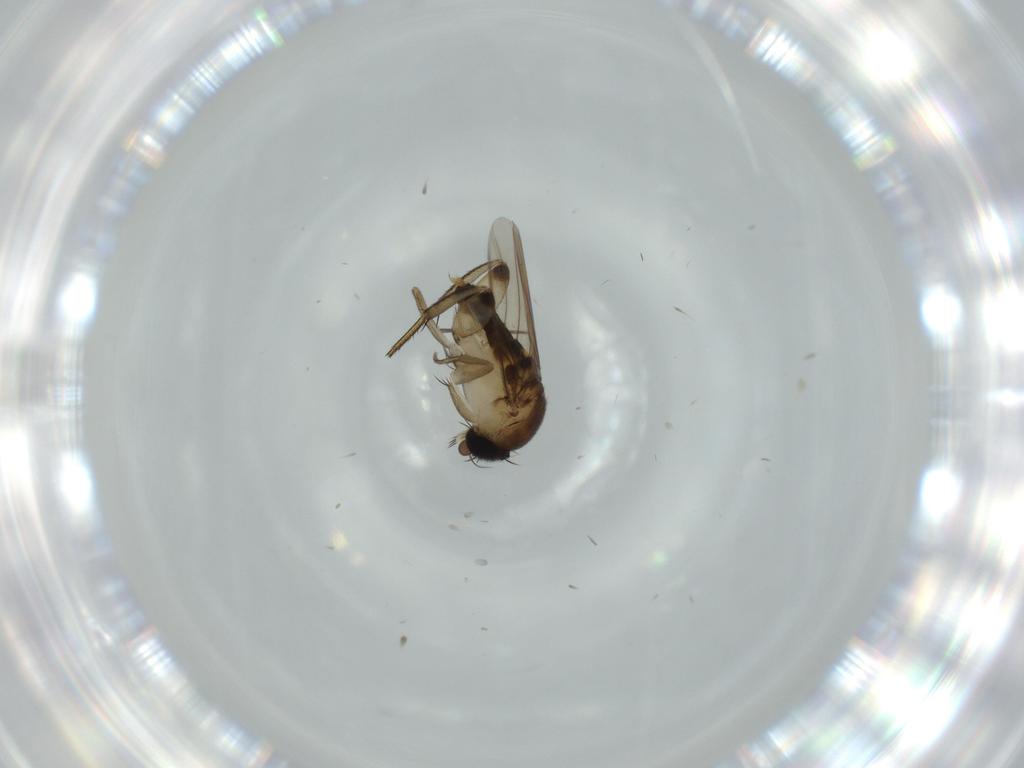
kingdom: Animalia
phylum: Arthropoda
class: Insecta
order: Diptera
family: Phoridae
